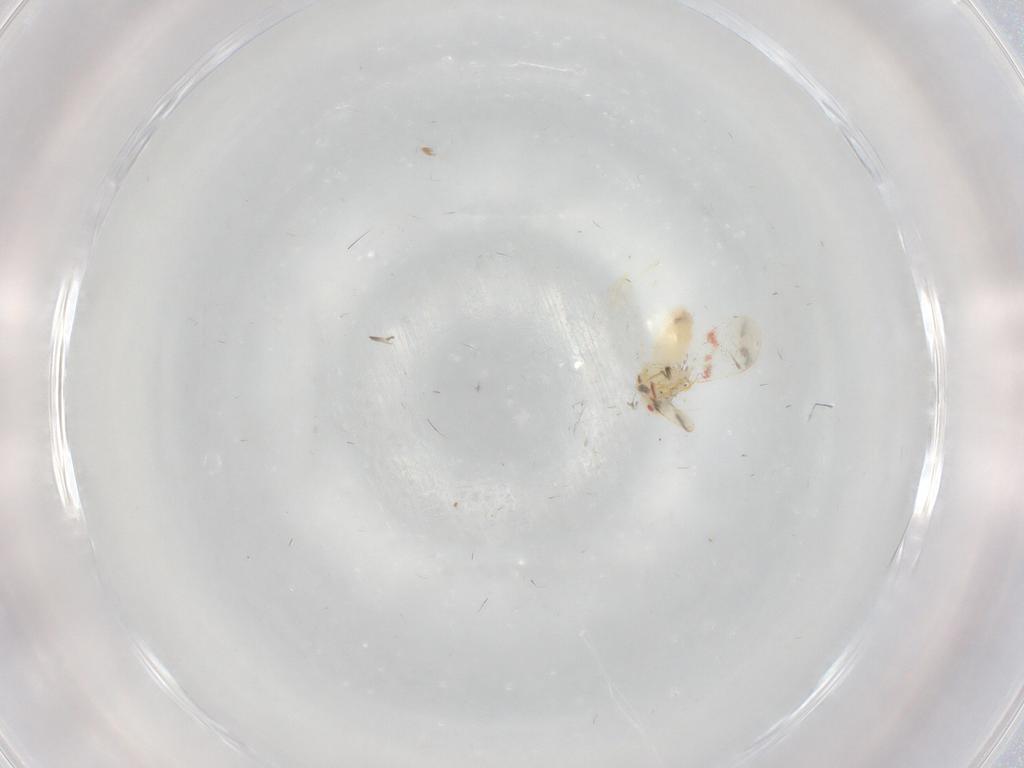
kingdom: Animalia
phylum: Arthropoda
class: Insecta
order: Hemiptera
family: Aleyrodidae
